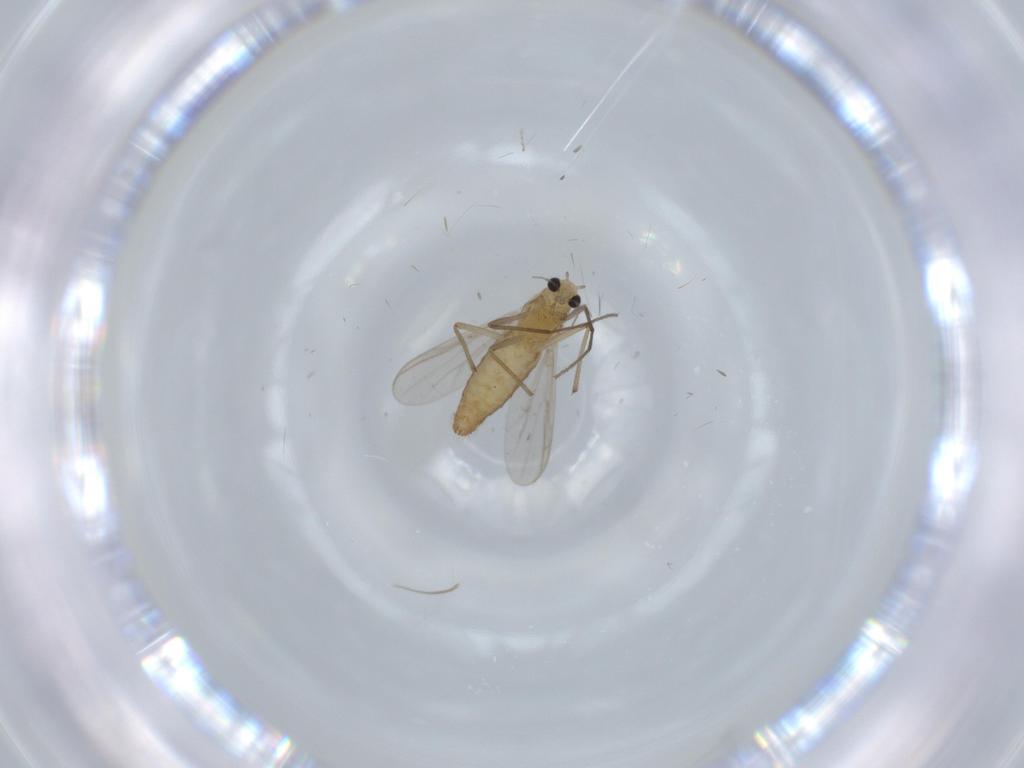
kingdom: Animalia
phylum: Arthropoda
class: Insecta
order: Diptera
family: Chironomidae
